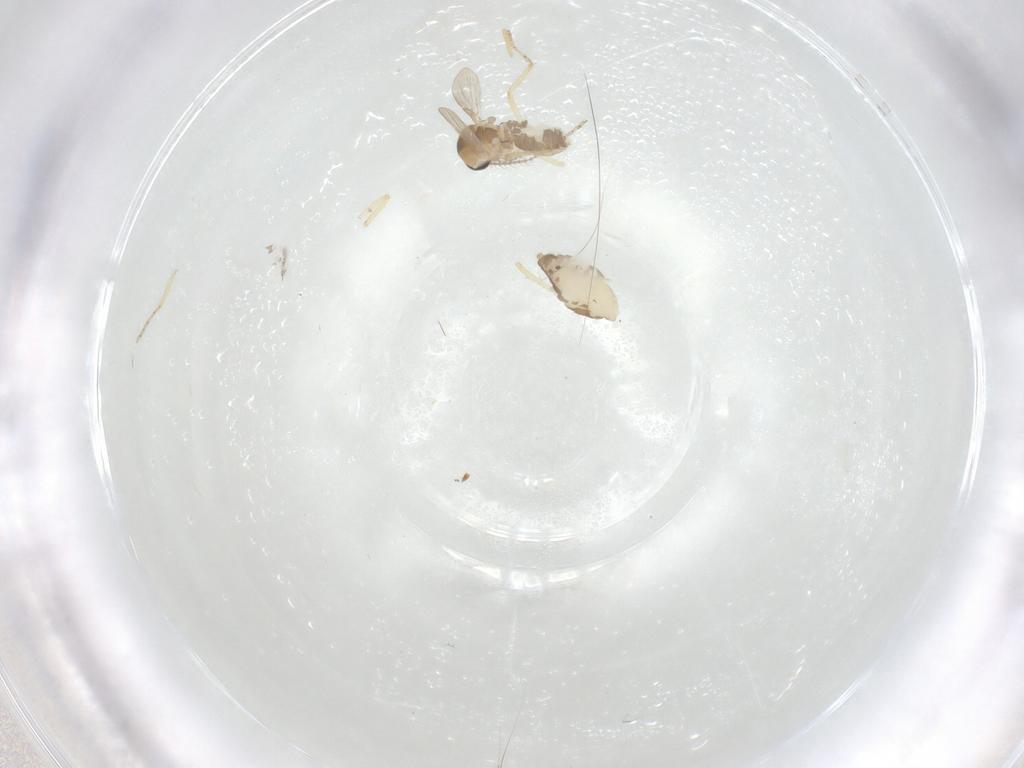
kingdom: Animalia
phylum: Arthropoda
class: Insecta
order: Diptera
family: Ceratopogonidae
